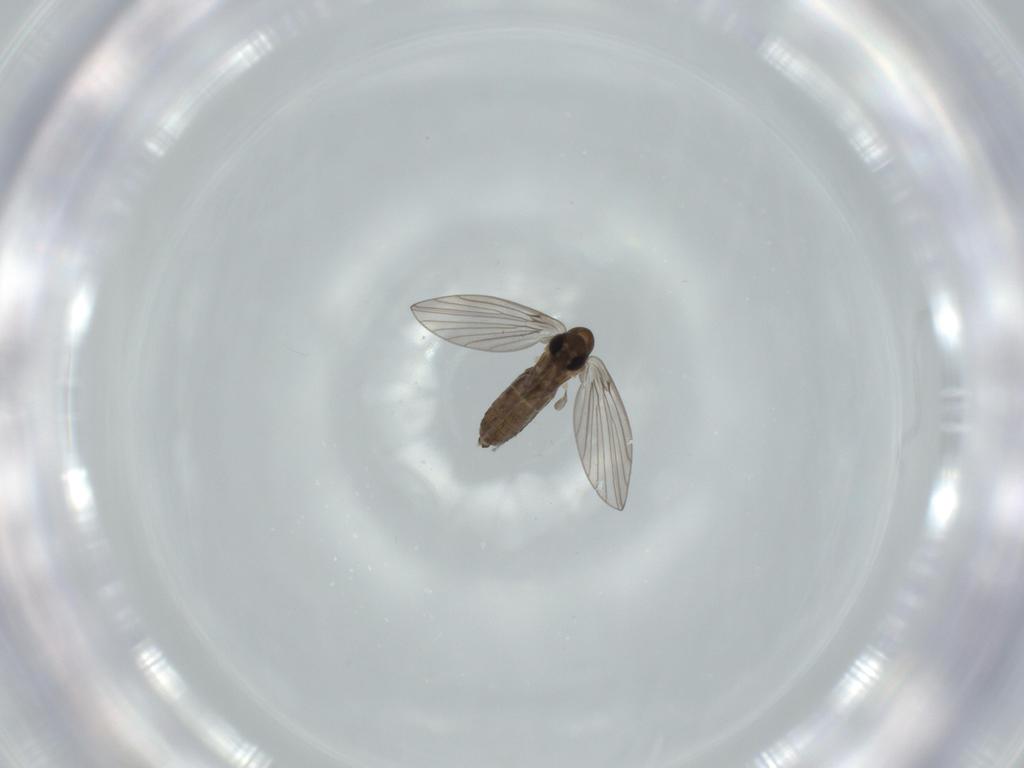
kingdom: Animalia
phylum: Arthropoda
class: Insecta
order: Diptera
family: Psychodidae
